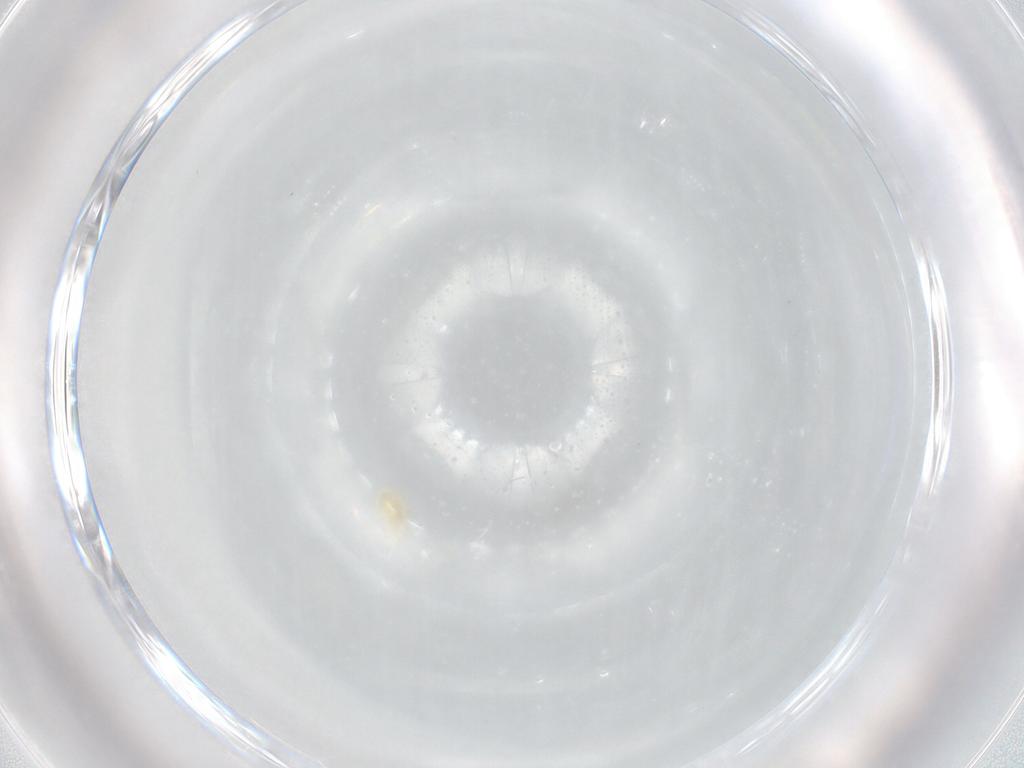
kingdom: Animalia
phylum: Arthropoda
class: Arachnida
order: Trombidiformes
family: Eupodidae
